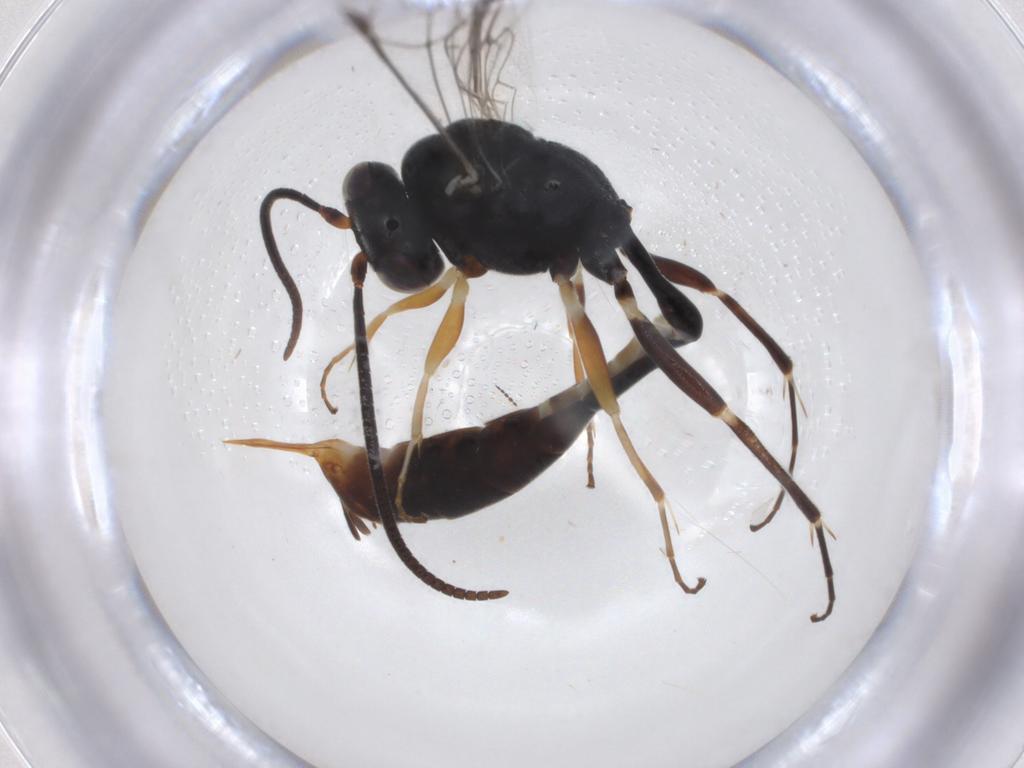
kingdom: Animalia
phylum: Arthropoda
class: Insecta
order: Hymenoptera
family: Ichneumonidae
